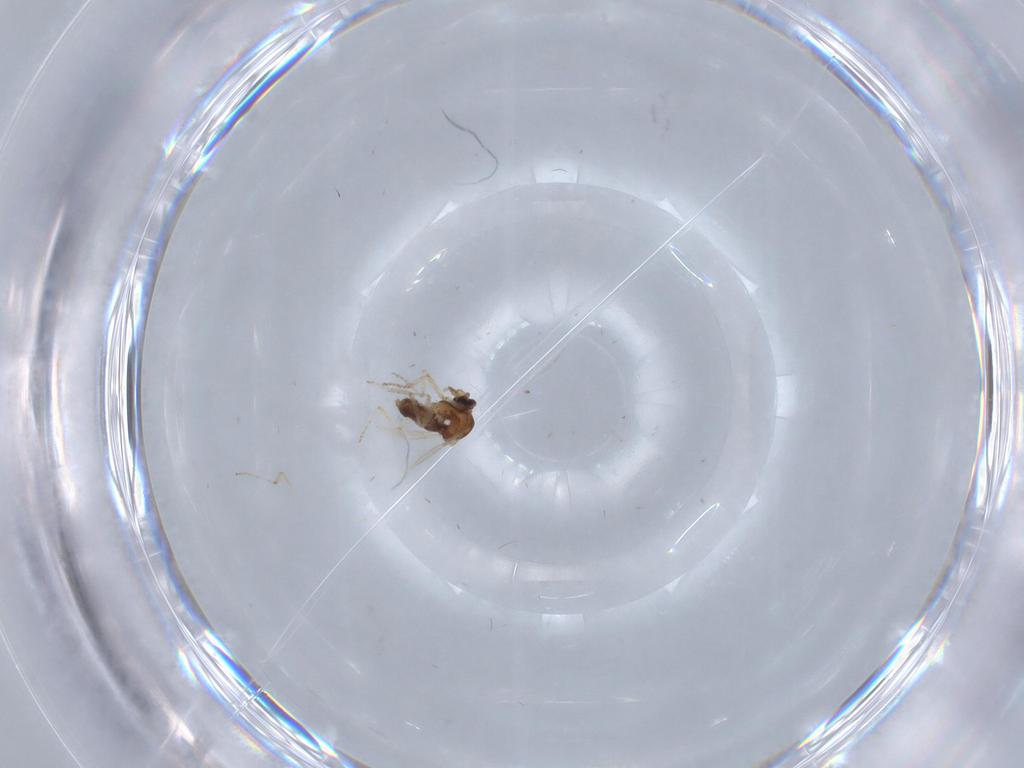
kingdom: Animalia
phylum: Arthropoda
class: Insecta
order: Diptera
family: Ceratopogonidae
